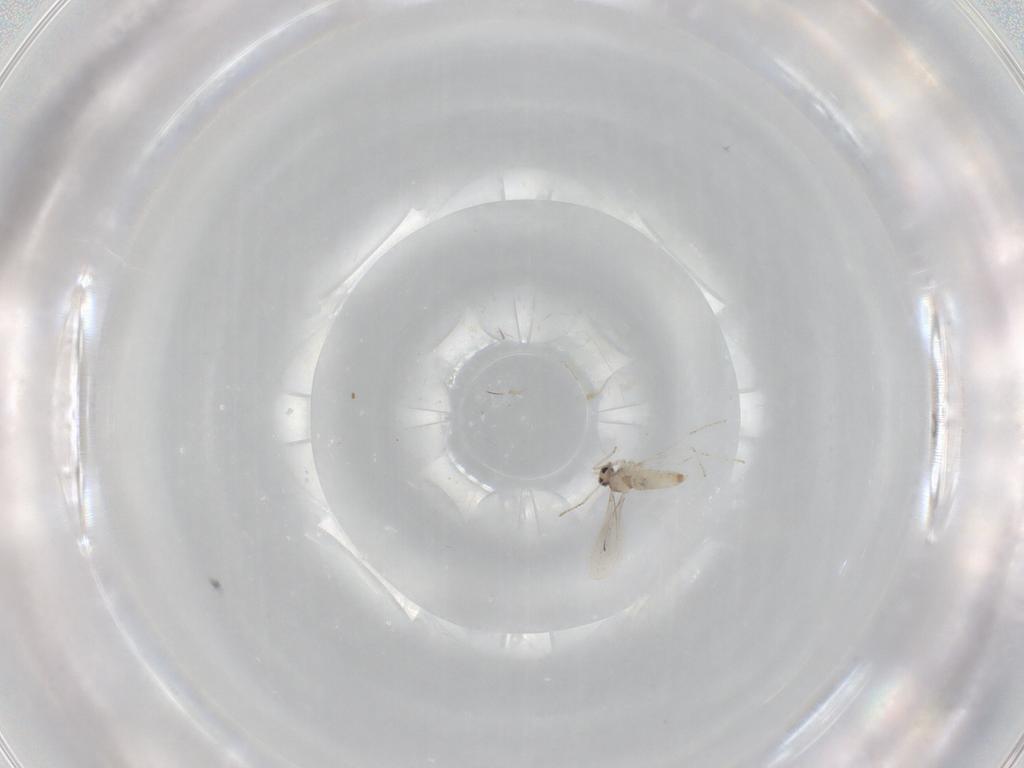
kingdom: Animalia
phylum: Arthropoda
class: Insecta
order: Diptera
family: Cecidomyiidae
